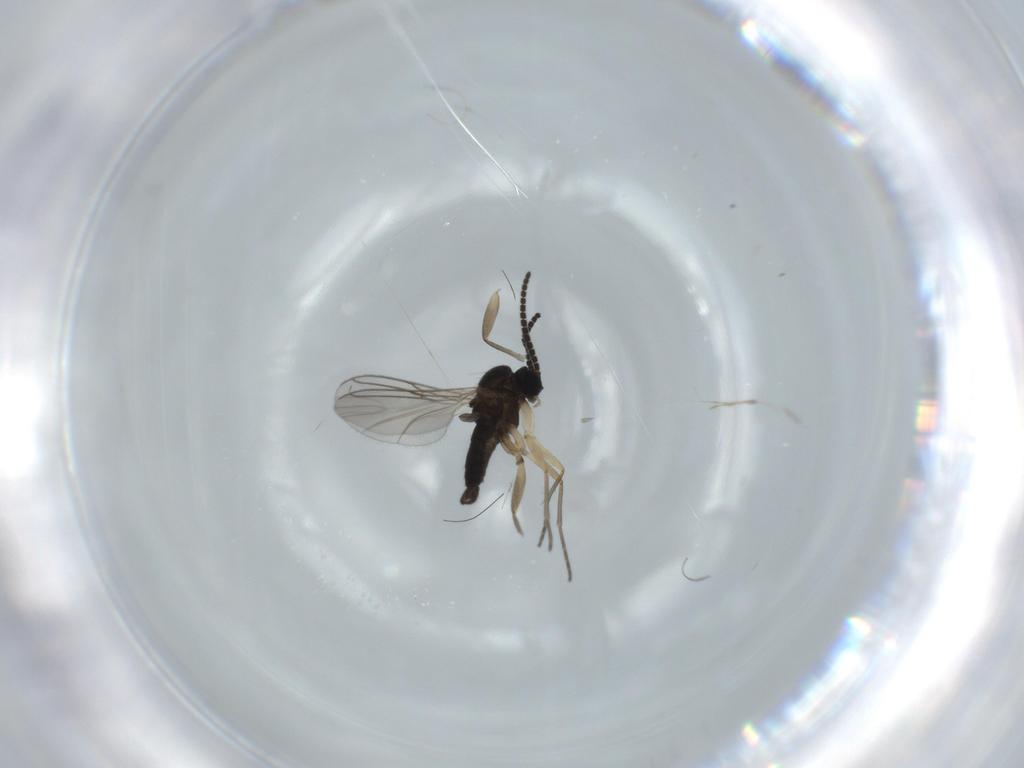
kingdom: Animalia
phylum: Arthropoda
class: Insecta
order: Diptera
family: Sciaridae
